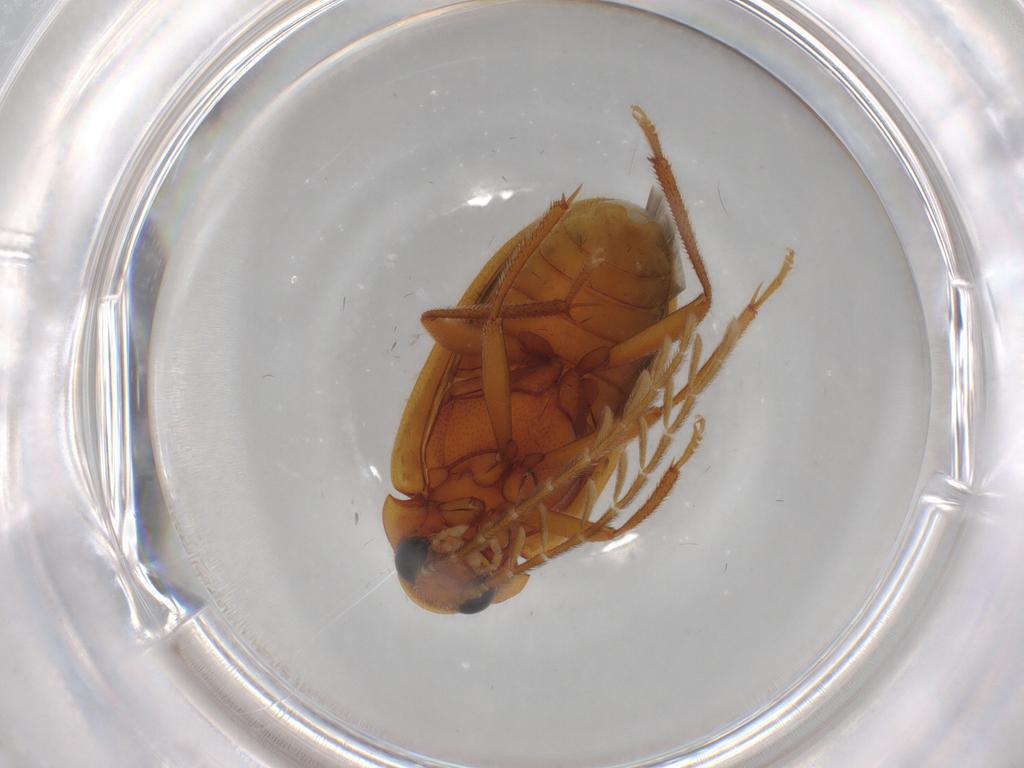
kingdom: Animalia
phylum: Arthropoda
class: Insecta
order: Coleoptera
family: Ptilodactylidae
